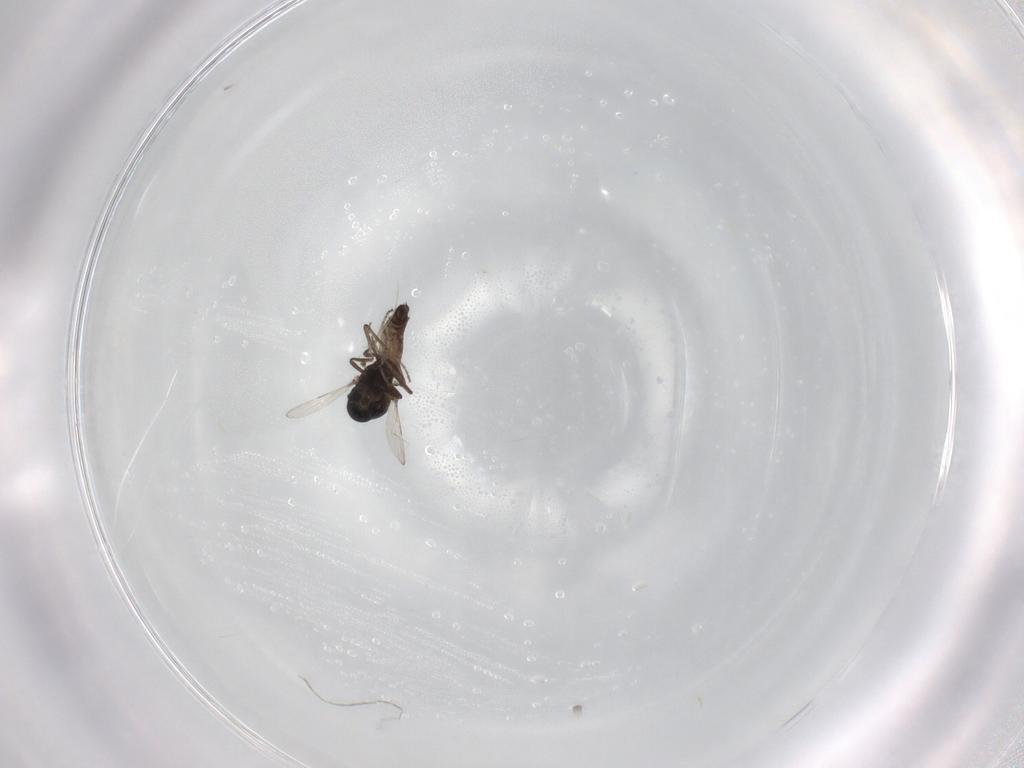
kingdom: Animalia
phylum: Arthropoda
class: Insecta
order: Diptera
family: Ceratopogonidae
